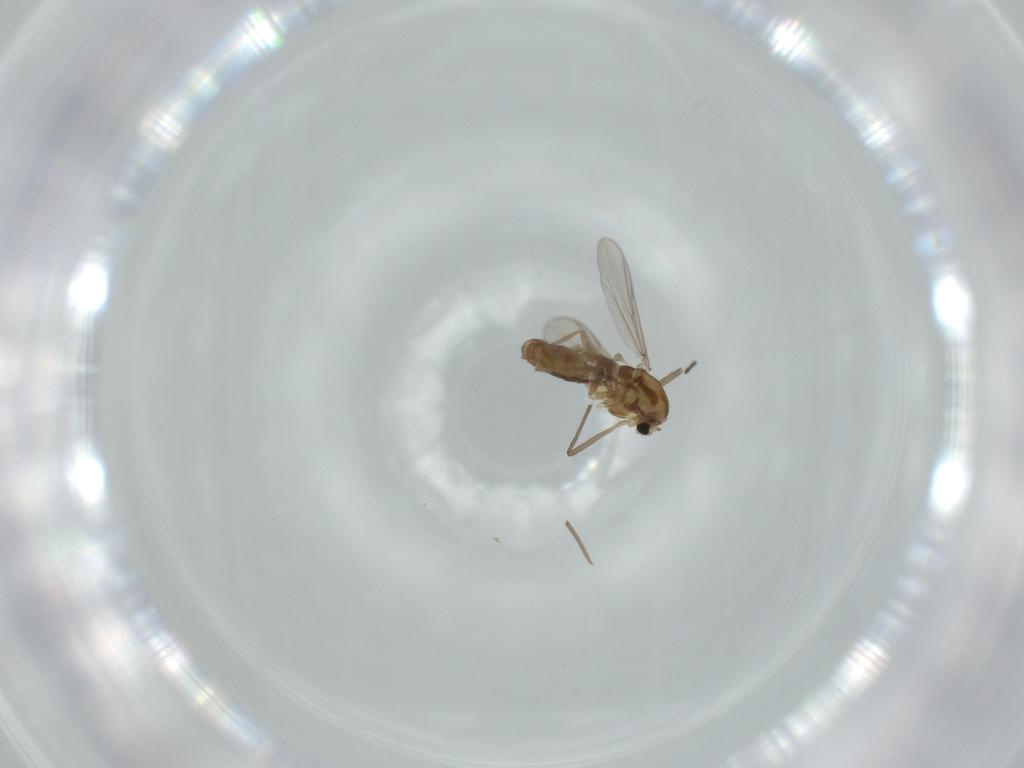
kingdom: Animalia
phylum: Arthropoda
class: Insecta
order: Diptera
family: Chironomidae
